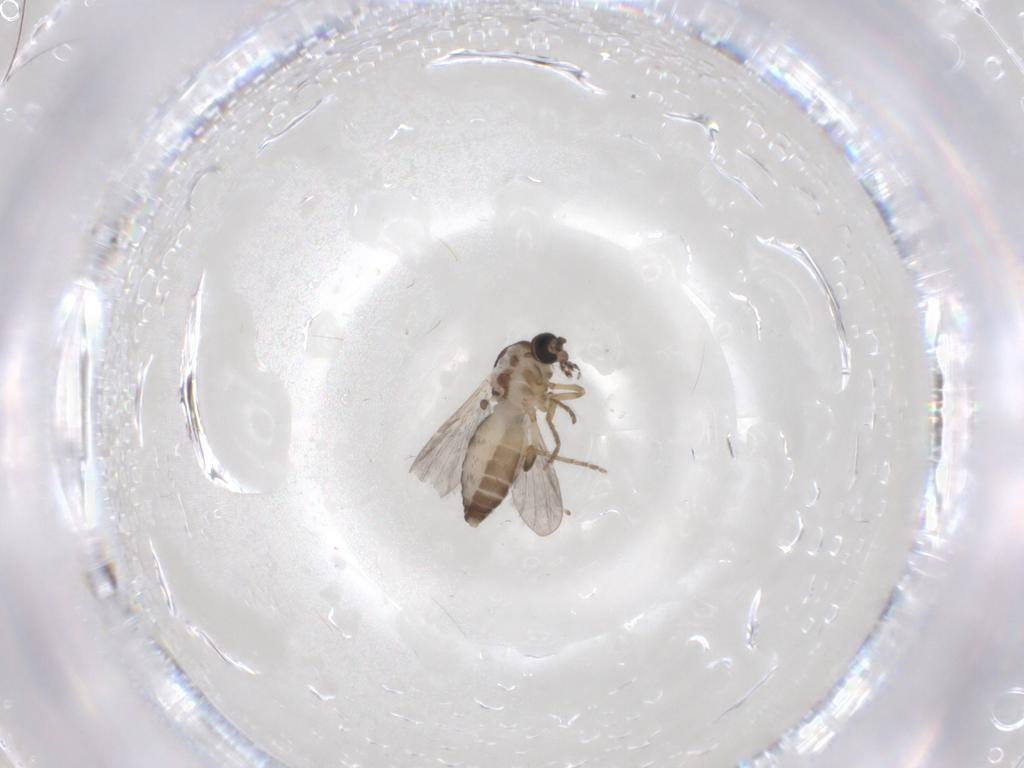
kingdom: Animalia
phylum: Arthropoda
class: Insecta
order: Diptera
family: Ceratopogonidae
